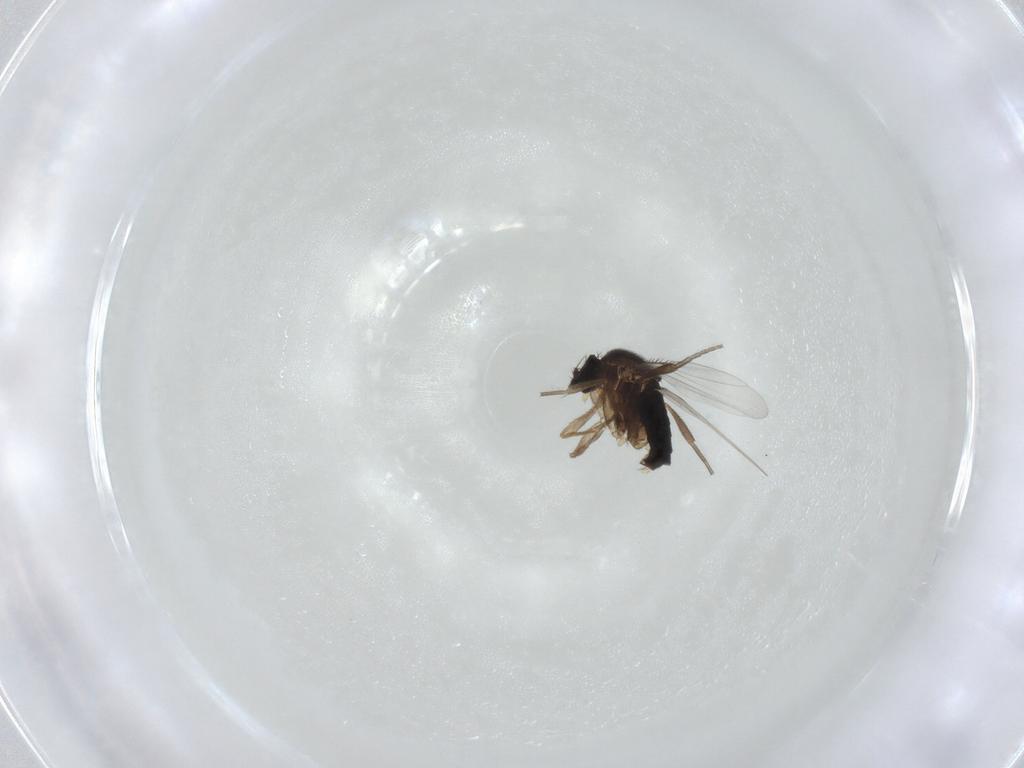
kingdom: Animalia
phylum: Arthropoda
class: Insecta
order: Diptera
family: Phoridae
